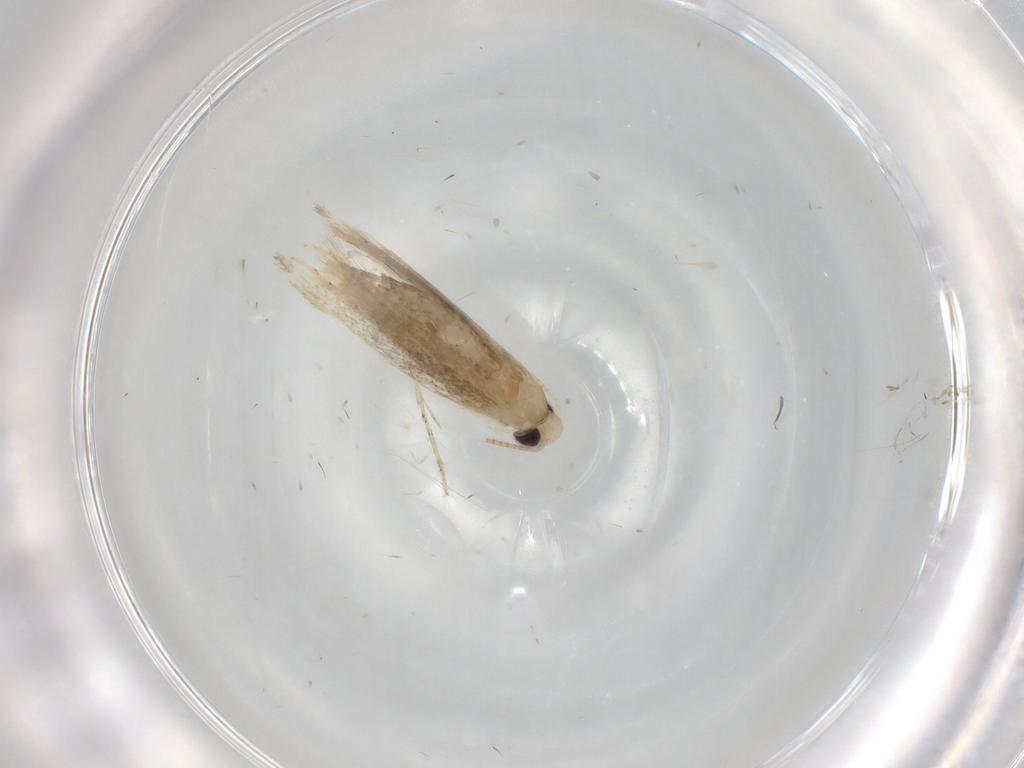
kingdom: Animalia
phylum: Arthropoda
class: Insecta
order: Lepidoptera
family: Gracillariidae
